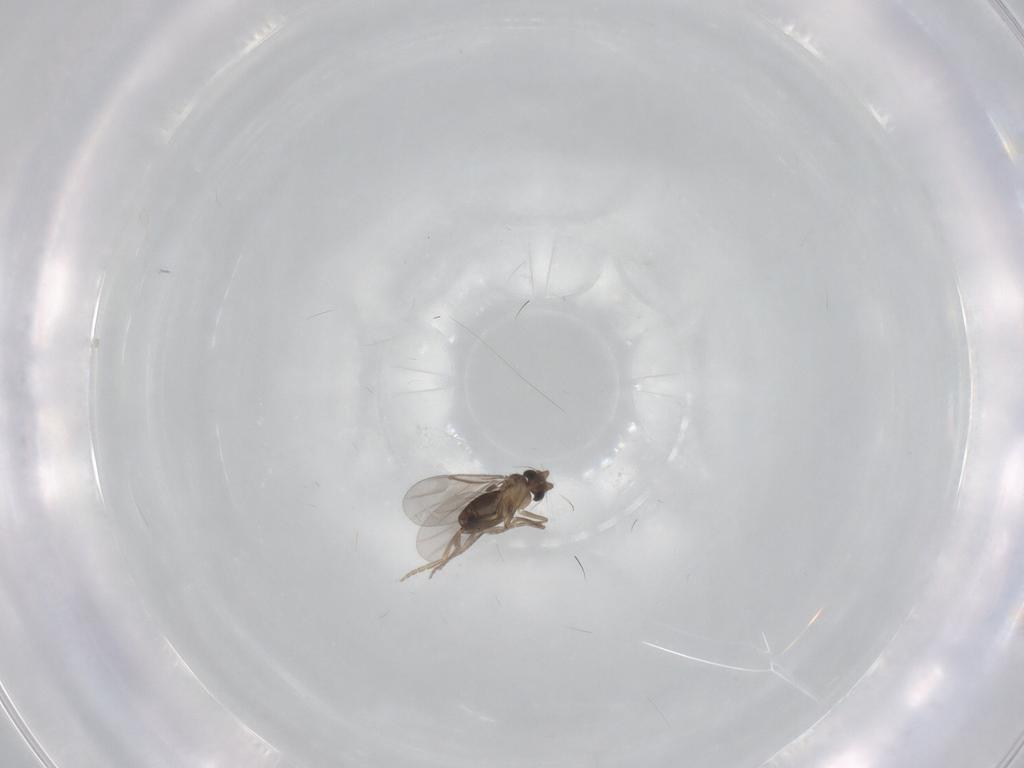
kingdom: Animalia
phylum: Arthropoda
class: Insecta
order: Diptera
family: Limoniidae
